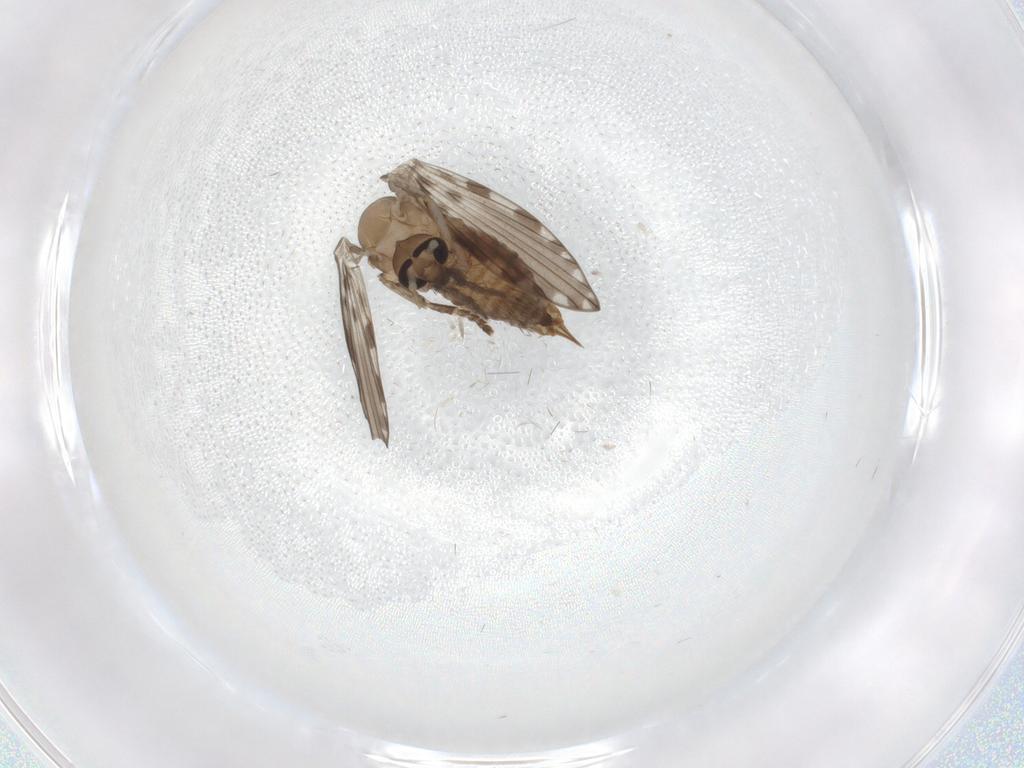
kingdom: Animalia
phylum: Arthropoda
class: Insecta
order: Diptera
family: Psychodidae
